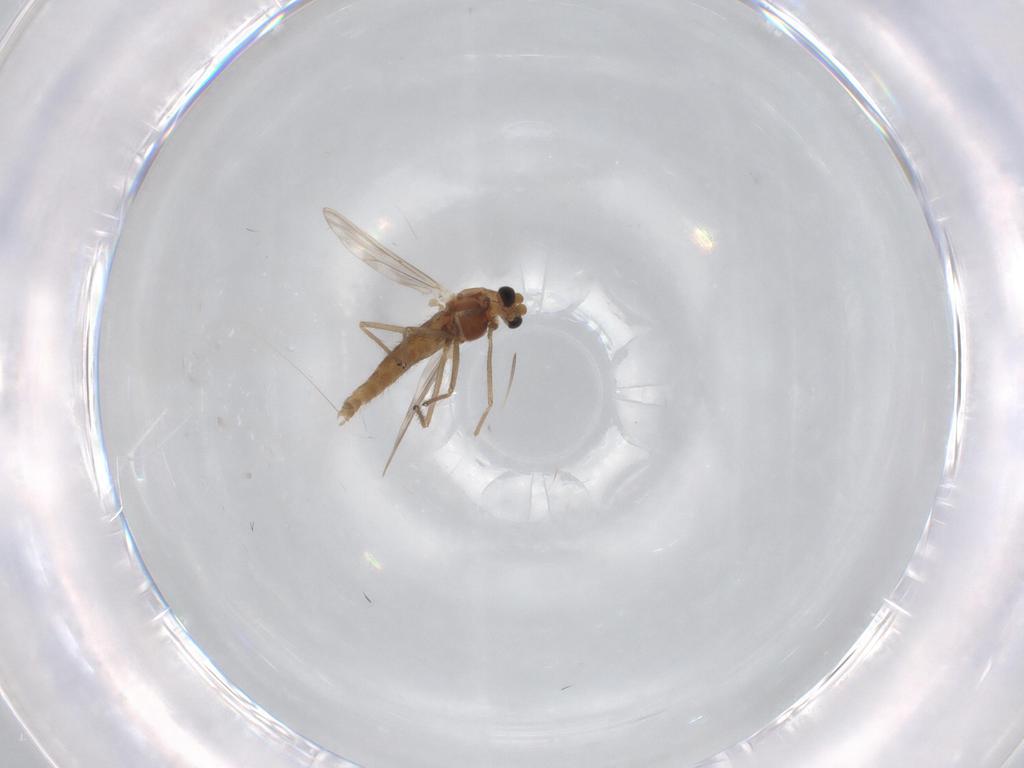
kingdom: Animalia
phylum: Arthropoda
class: Insecta
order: Diptera
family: Chironomidae
